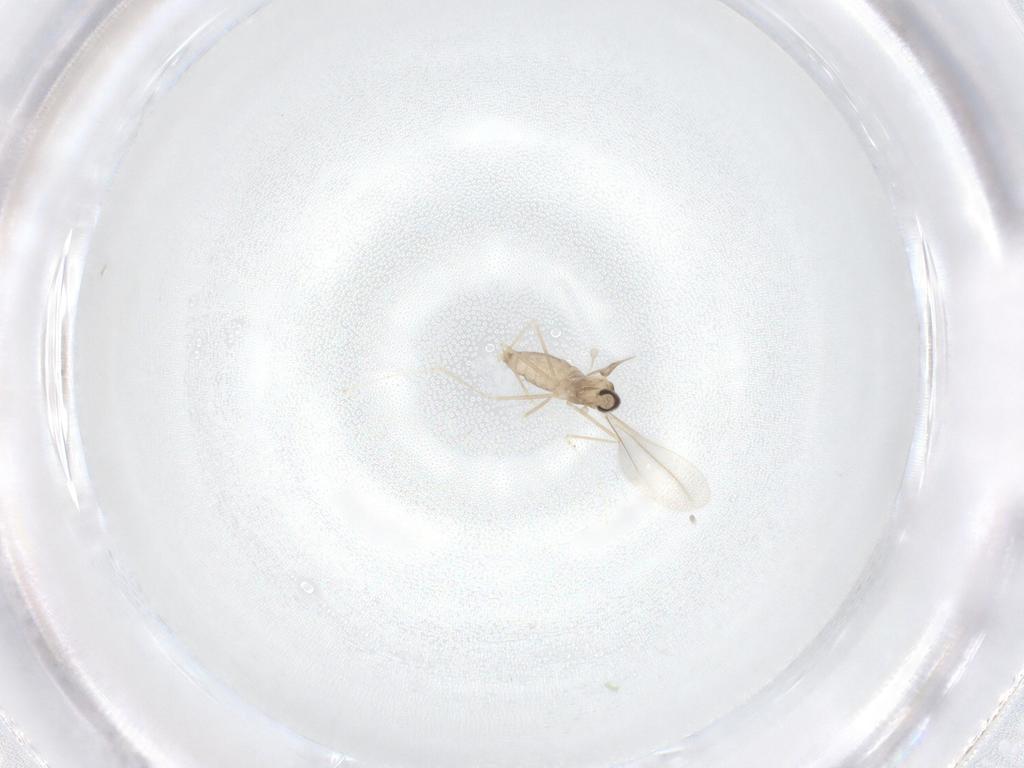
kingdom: Animalia
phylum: Arthropoda
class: Insecta
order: Diptera
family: Cecidomyiidae
